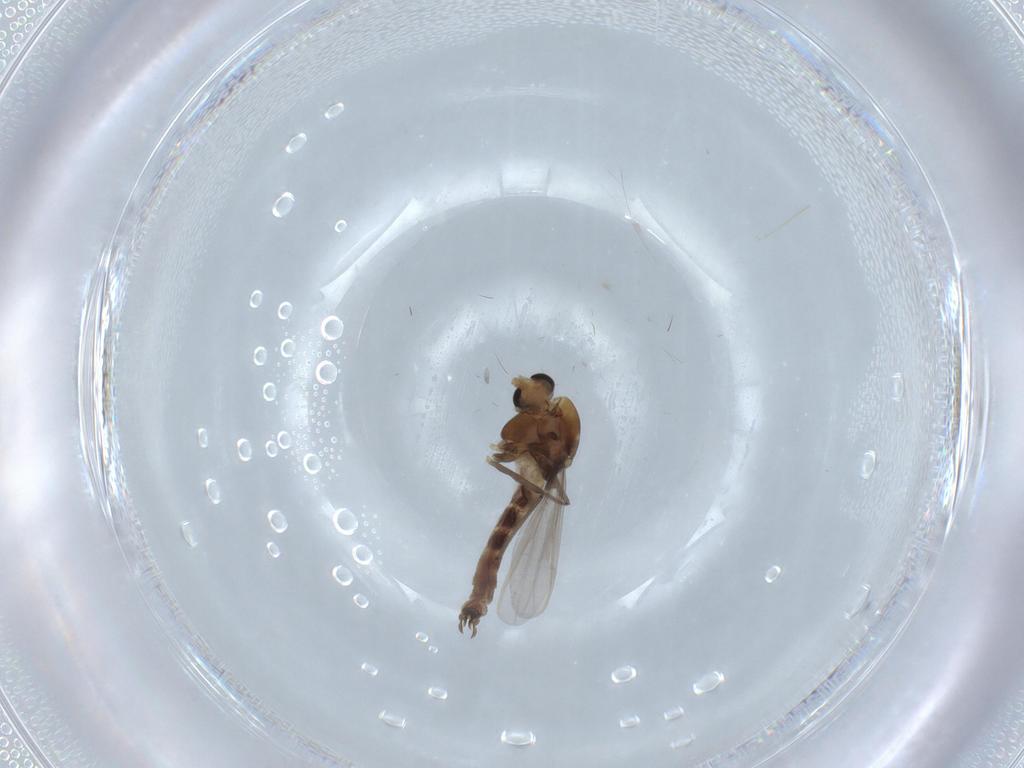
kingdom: Animalia
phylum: Arthropoda
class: Insecta
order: Diptera
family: Chironomidae
